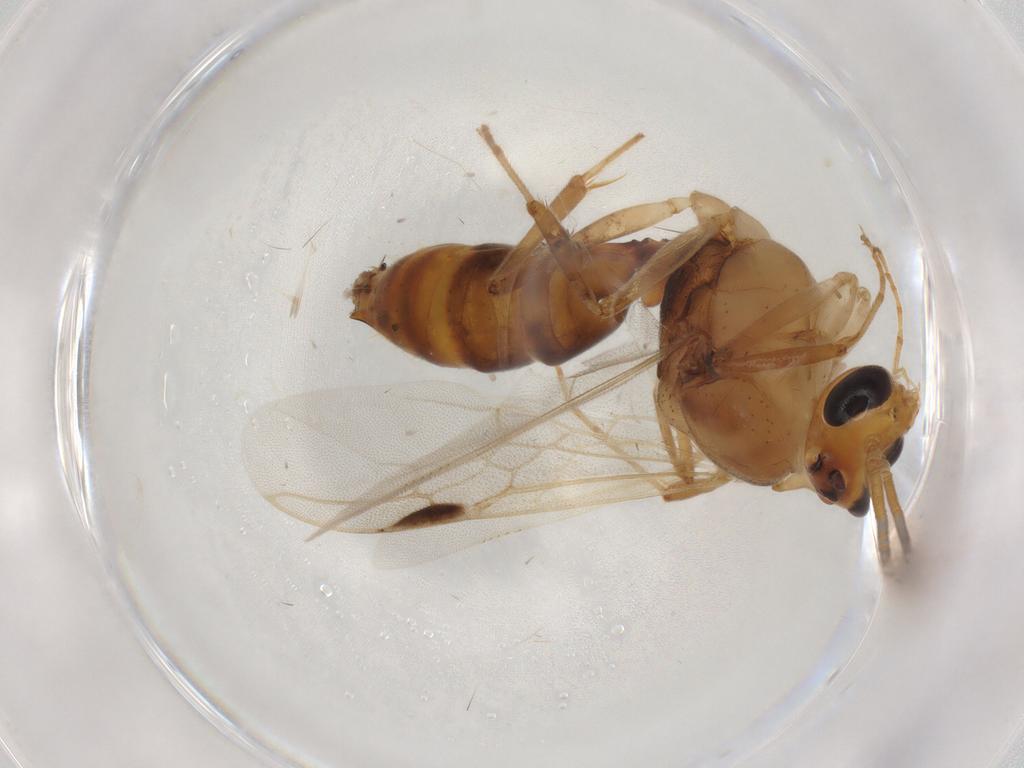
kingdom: Animalia
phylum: Arthropoda
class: Insecta
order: Hymenoptera
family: Formicidae
